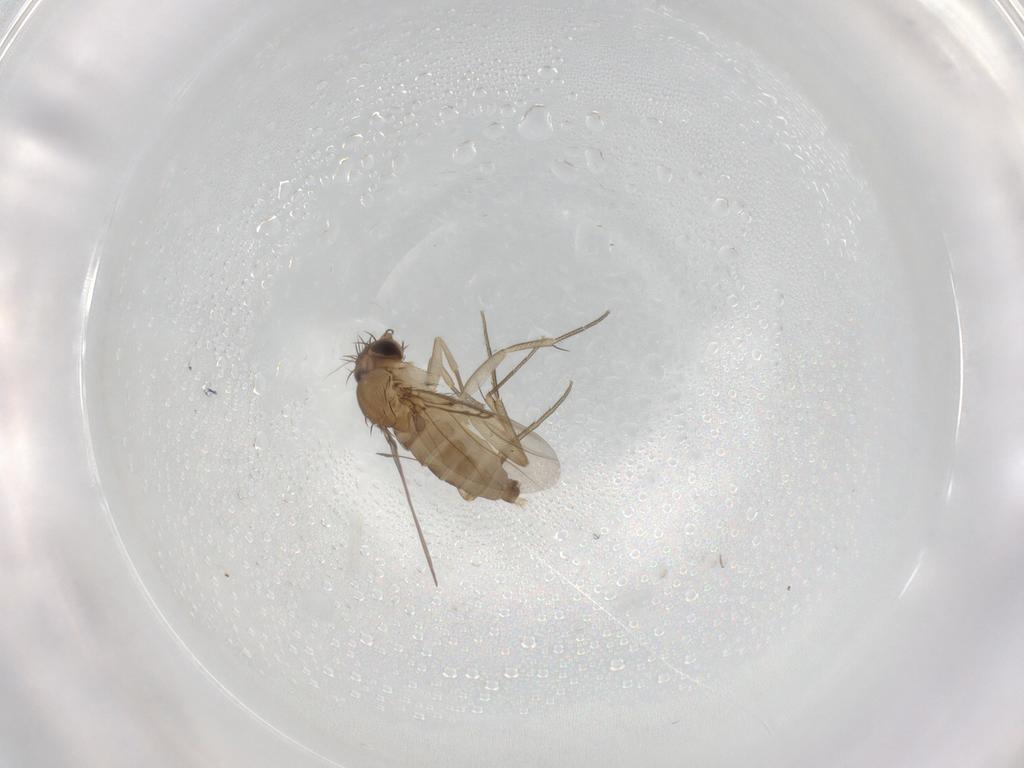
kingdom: Animalia
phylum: Arthropoda
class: Insecta
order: Diptera
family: Phoridae
